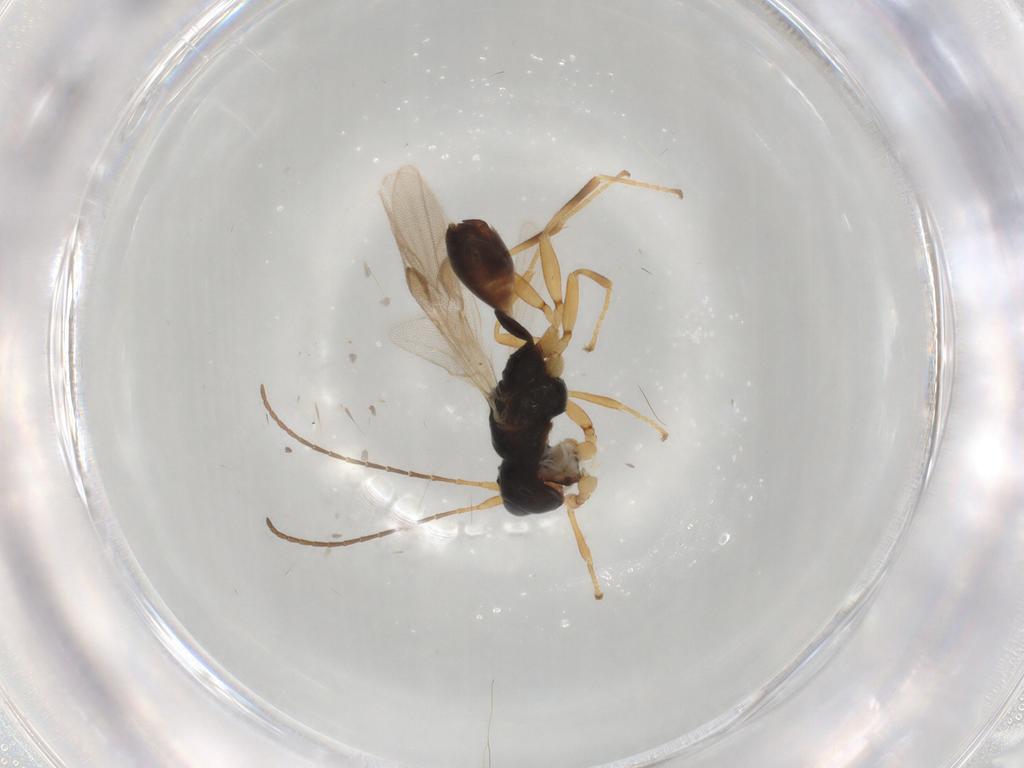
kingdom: Animalia
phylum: Arthropoda
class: Insecta
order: Hymenoptera
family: Braconidae
